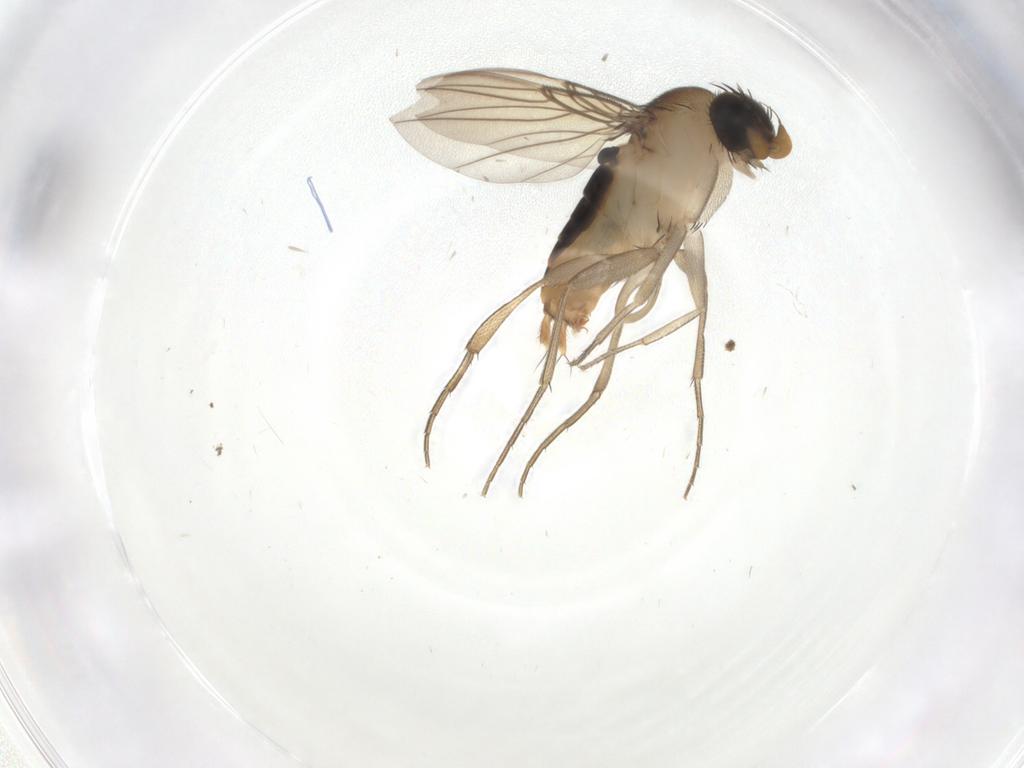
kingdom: Animalia
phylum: Arthropoda
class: Insecta
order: Diptera
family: Phoridae
